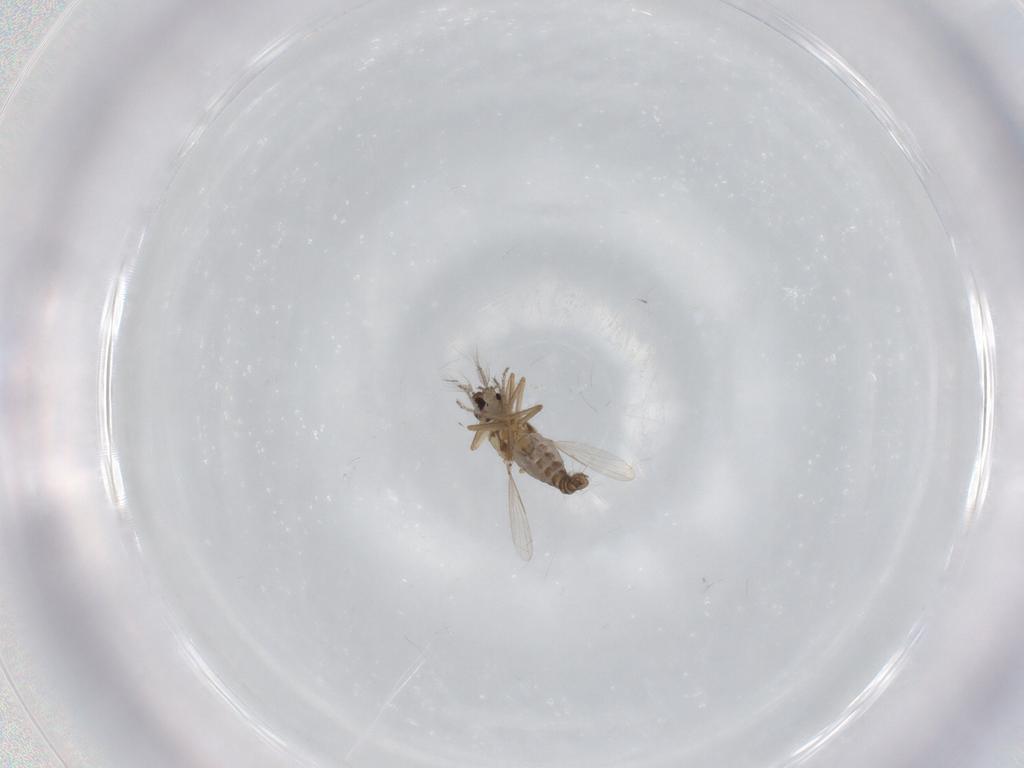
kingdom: Animalia
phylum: Arthropoda
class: Insecta
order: Diptera
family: Ceratopogonidae
